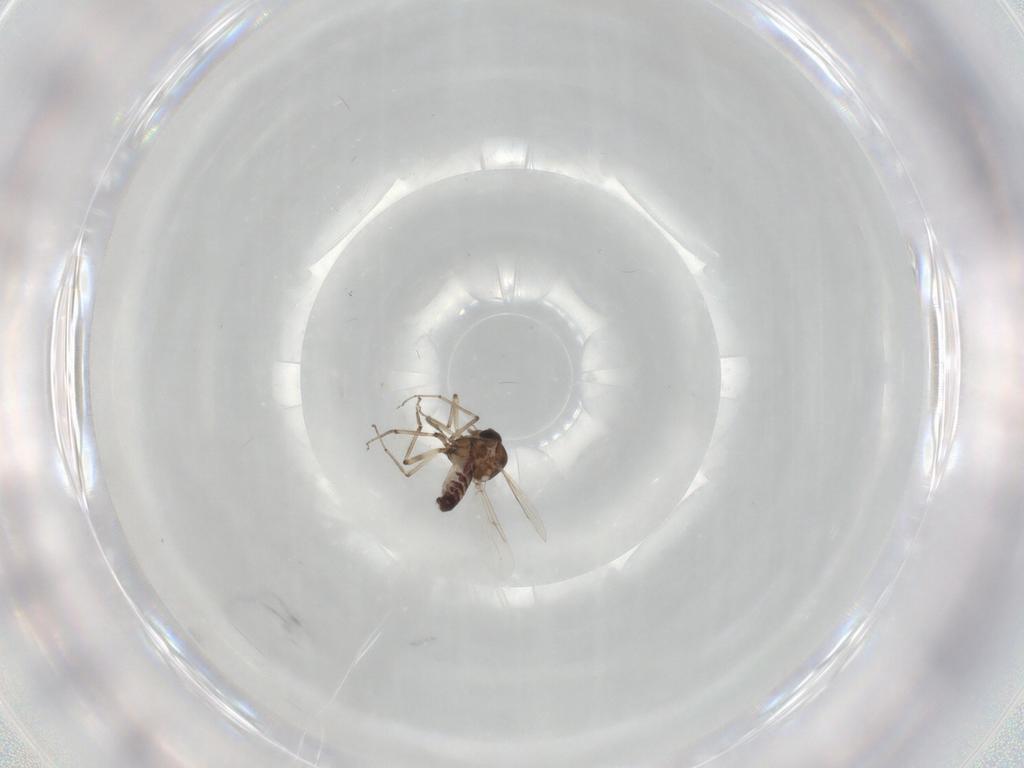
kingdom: Animalia
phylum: Arthropoda
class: Insecta
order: Diptera
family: Ceratopogonidae
